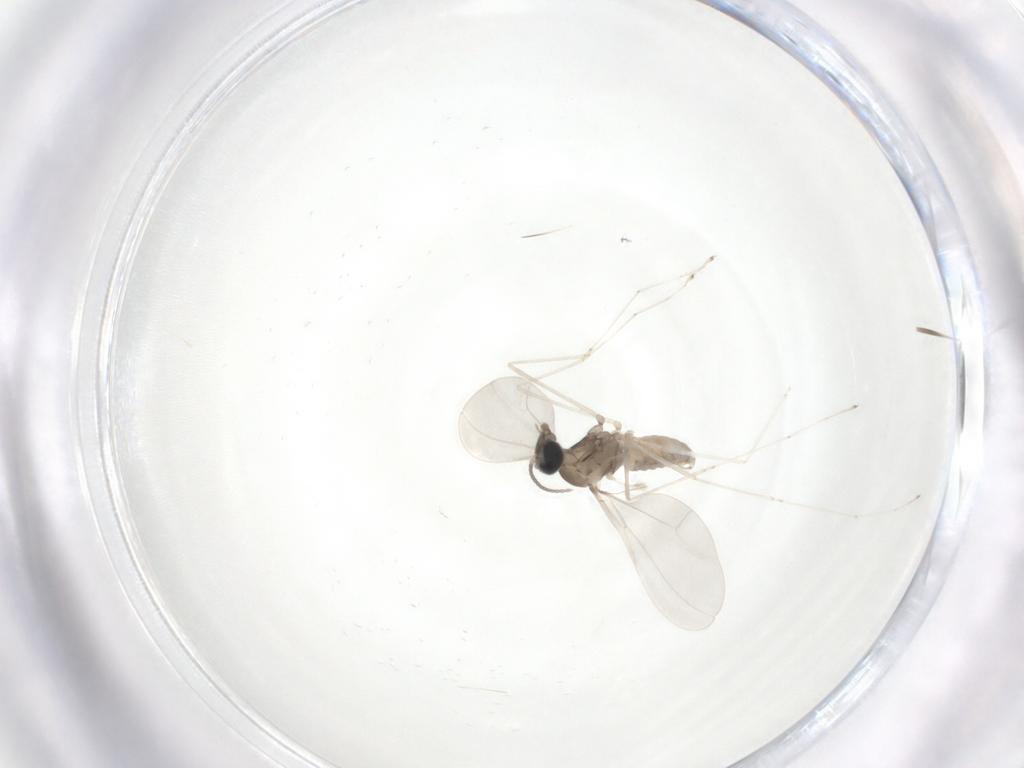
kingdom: Animalia
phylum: Arthropoda
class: Insecta
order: Diptera
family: Cecidomyiidae
